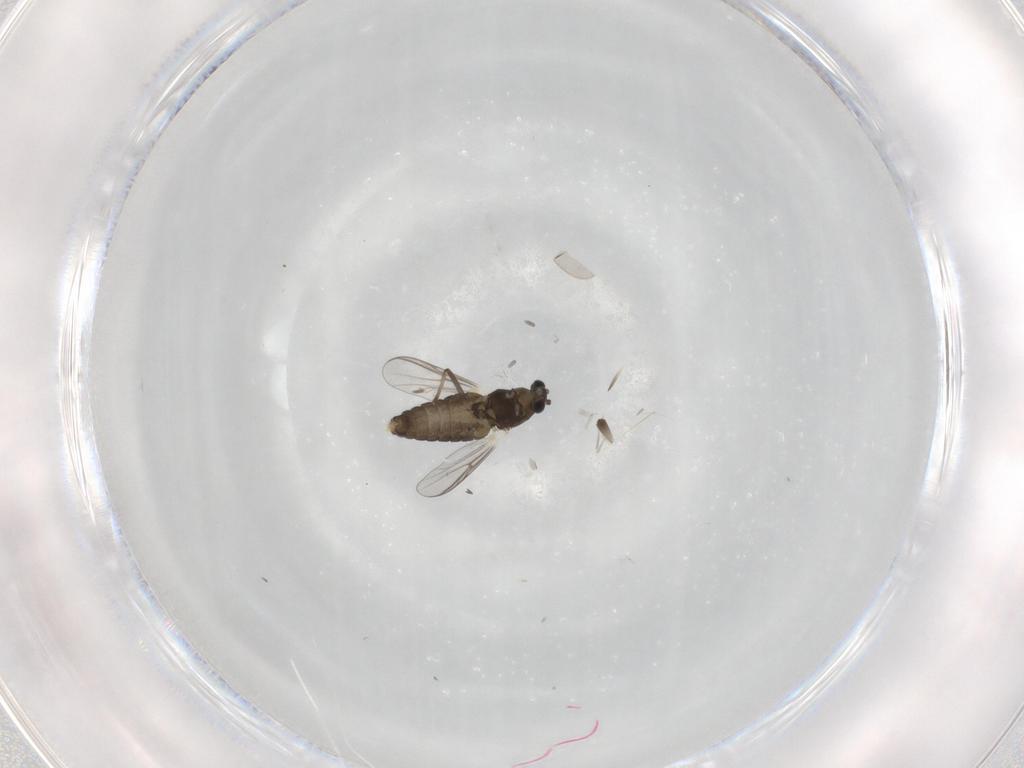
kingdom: Animalia
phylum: Arthropoda
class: Insecta
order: Diptera
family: Chironomidae
